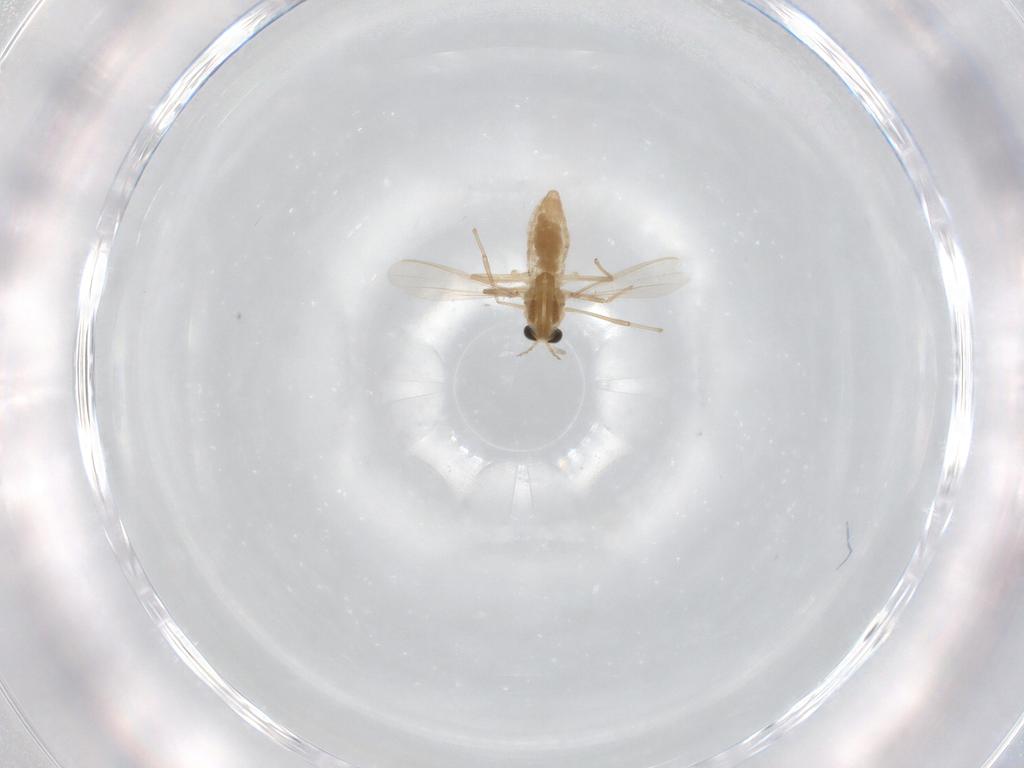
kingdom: Animalia
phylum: Arthropoda
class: Insecta
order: Diptera
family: Chironomidae
